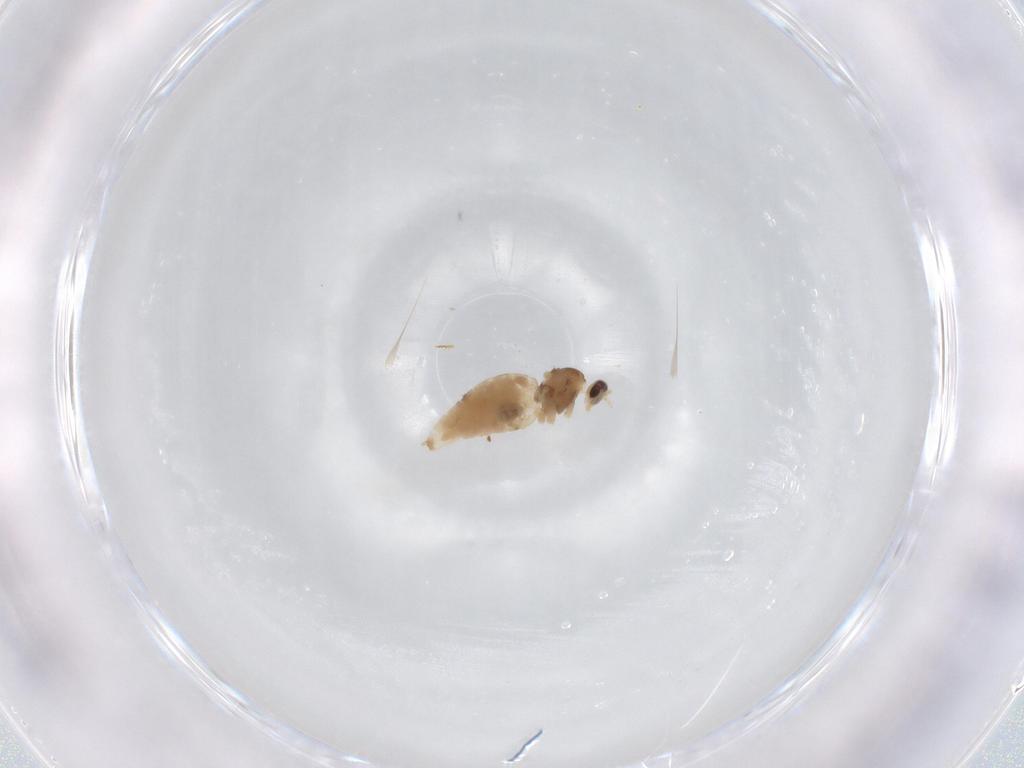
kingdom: Animalia
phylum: Arthropoda
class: Insecta
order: Diptera
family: Cecidomyiidae
